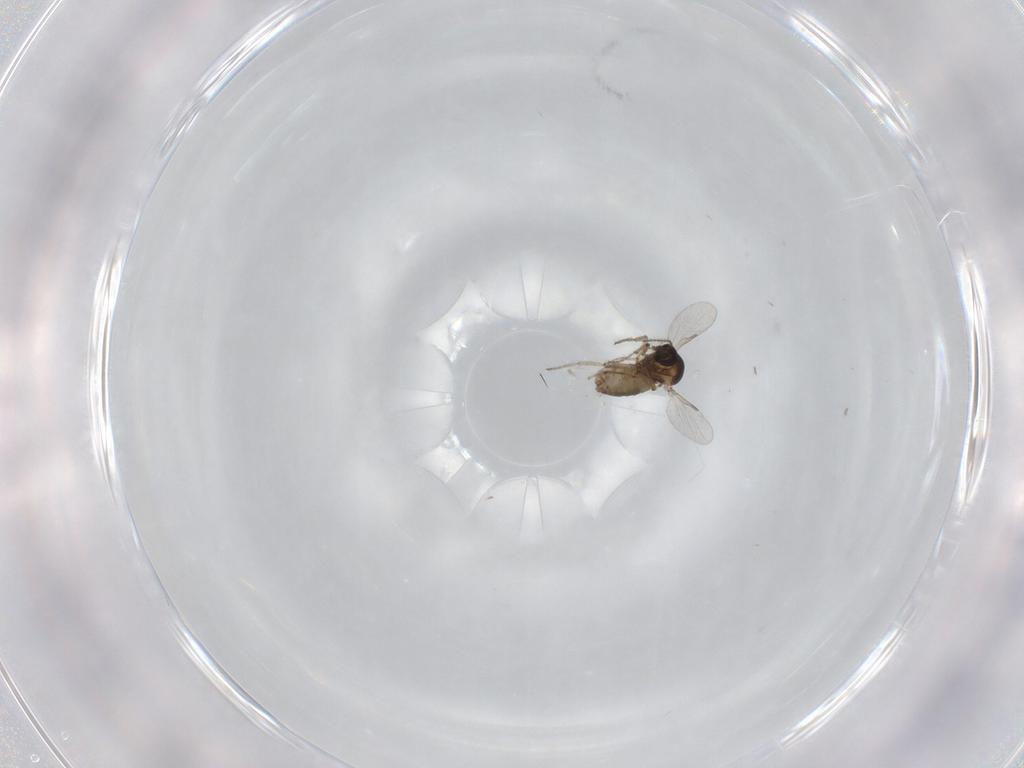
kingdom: Animalia
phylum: Arthropoda
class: Insecta
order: Diptera
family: Ceratopogonidae
